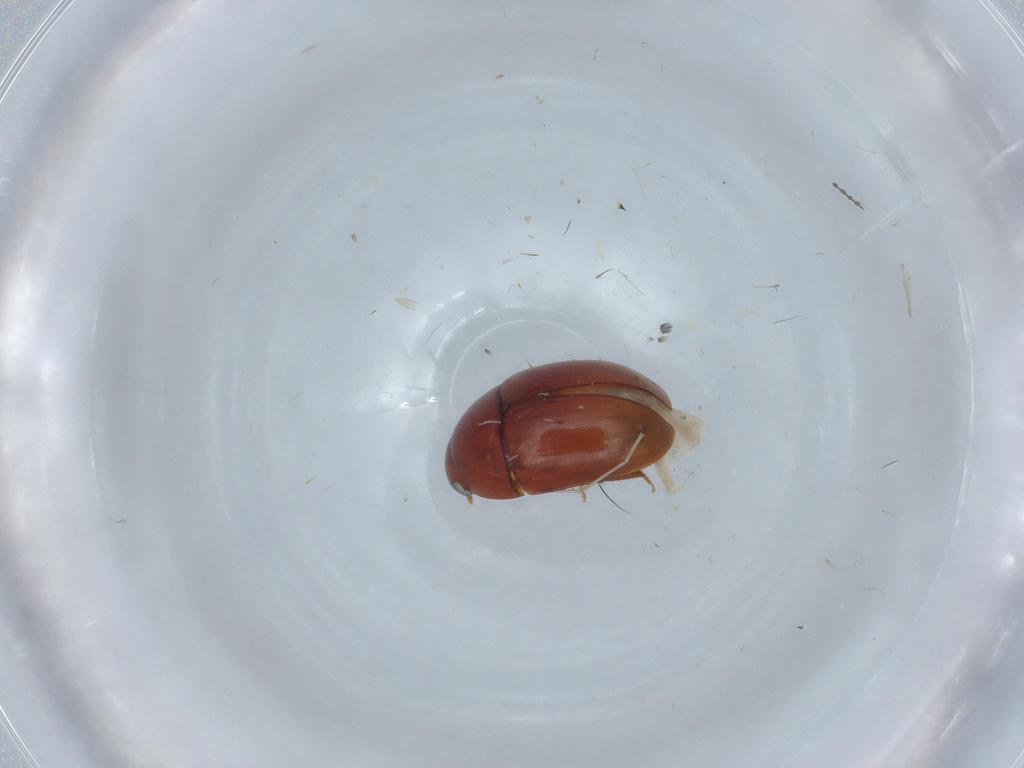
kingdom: Animalia
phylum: Arthropoda
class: Insecta
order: Coleoptera
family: Phalacridae
